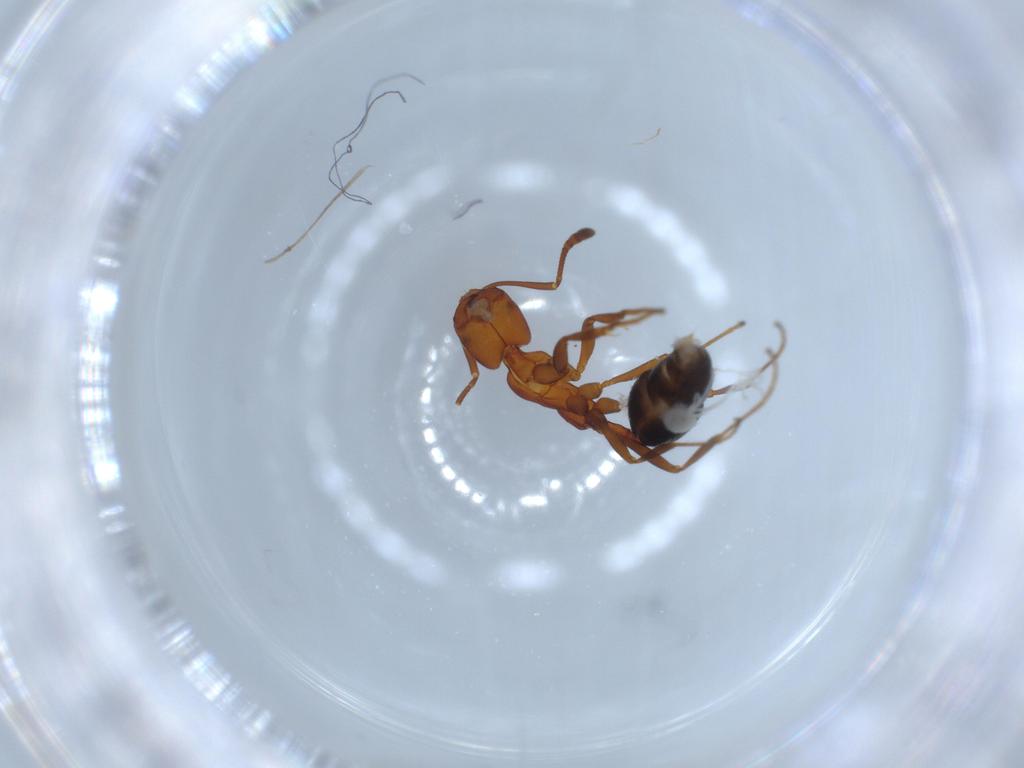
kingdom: Animalia
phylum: Arthropoda
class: Insecta
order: Hymenoptera
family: Formicidae
